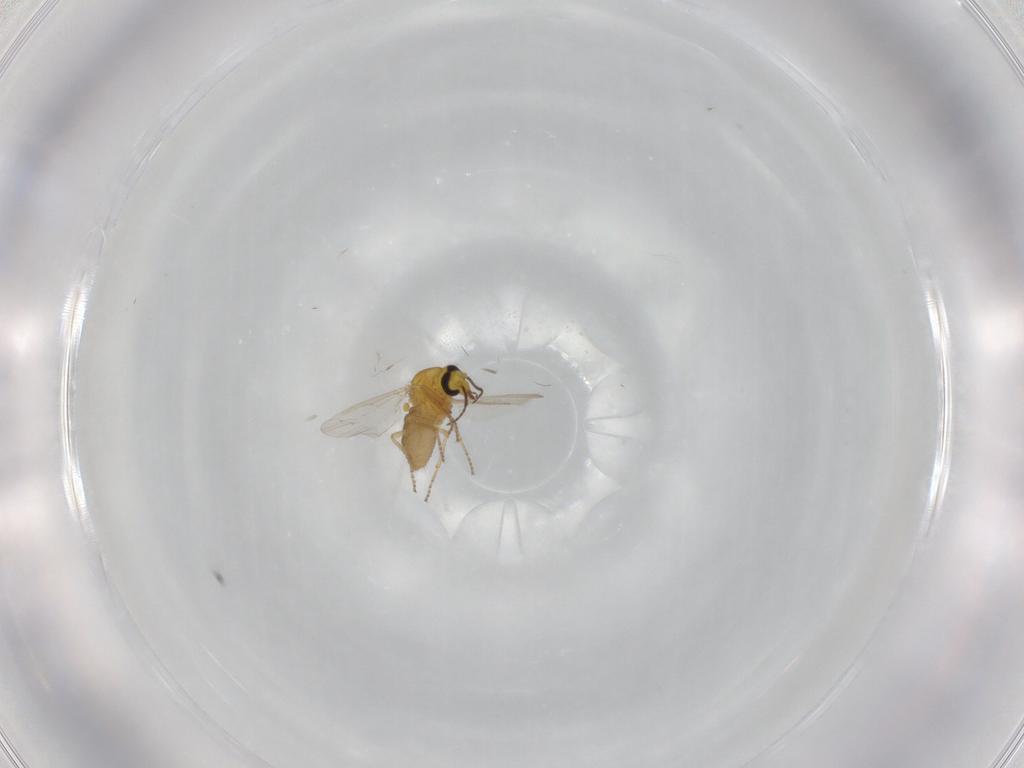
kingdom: Animalia
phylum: Arthropoda
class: Insecta
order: Diptera
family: Ceratopogonidae
